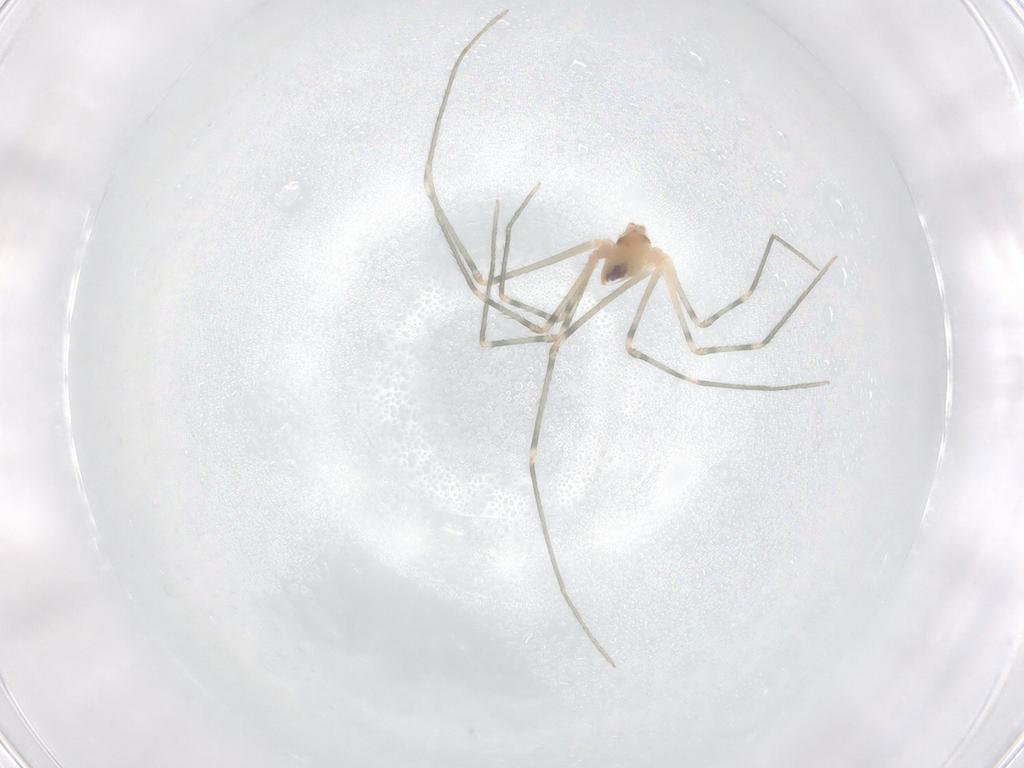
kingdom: Animalia
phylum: Arthropoda
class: Arachnida
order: Araneae
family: Pholcidae
